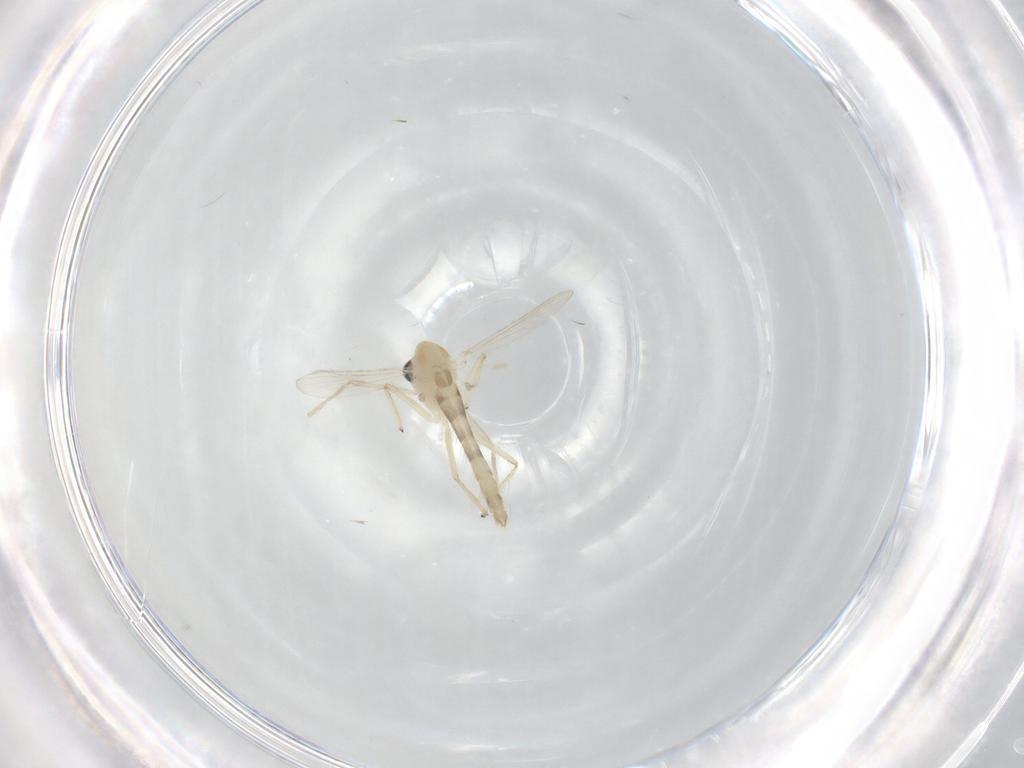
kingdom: Animalia
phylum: Arthropoda
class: Insecta
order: Diptera
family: Chironomidae
